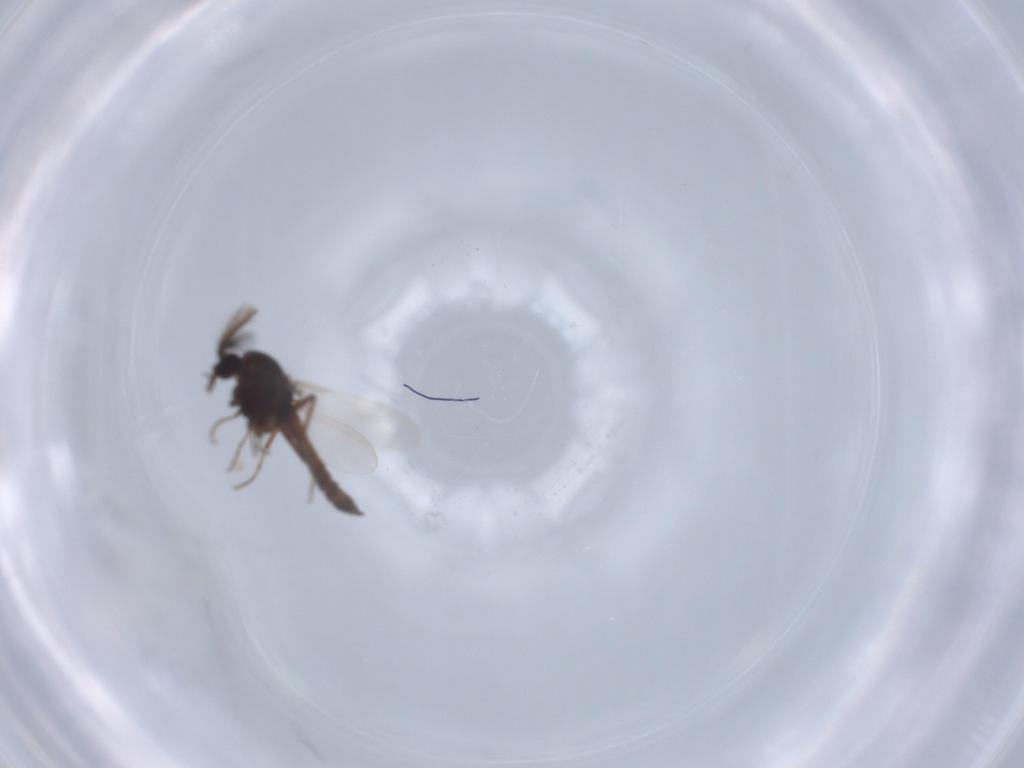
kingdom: Animalia
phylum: Arthropoda
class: Insecta
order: Diptera
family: Ceratopogonidae
